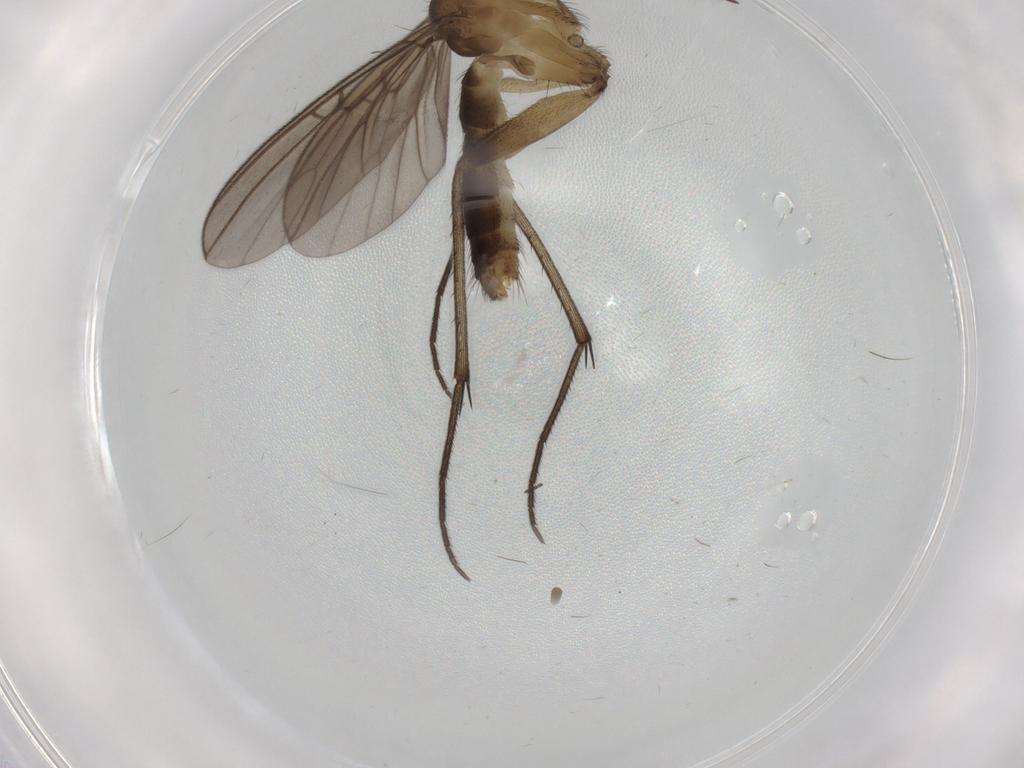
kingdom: Animalia
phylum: Arthropoda
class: Insecta
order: Diptera
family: Cecidomyiidae
